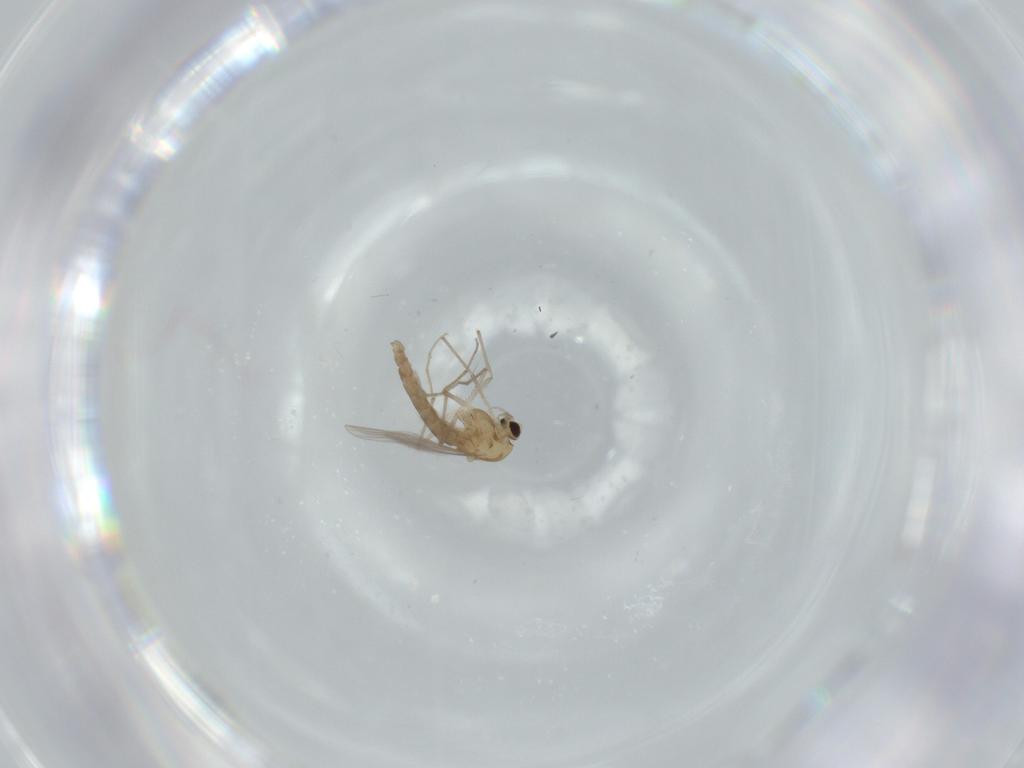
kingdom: Animalia
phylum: Arthropoda
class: Insecta
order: Diptera
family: Chironomidae
